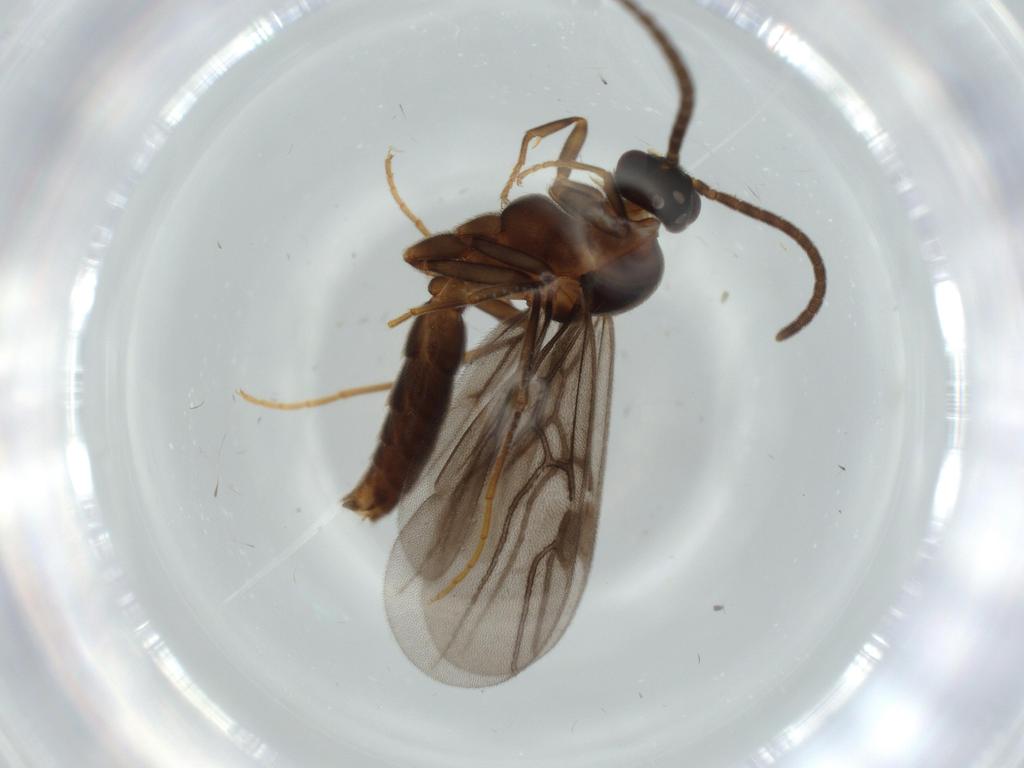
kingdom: Animalia
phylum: Arthropoda
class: Insecta
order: Hymenoptera
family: Formicidae
